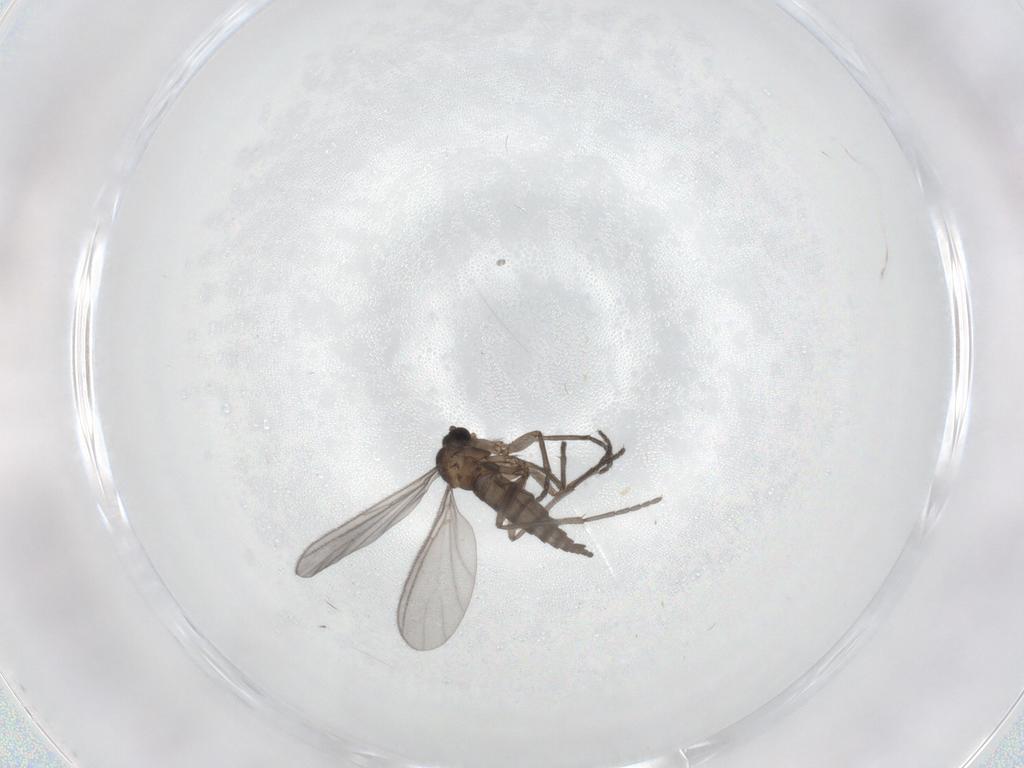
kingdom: Animalia
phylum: Arthropoda
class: Insecta
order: Diptera
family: Sciaridae
